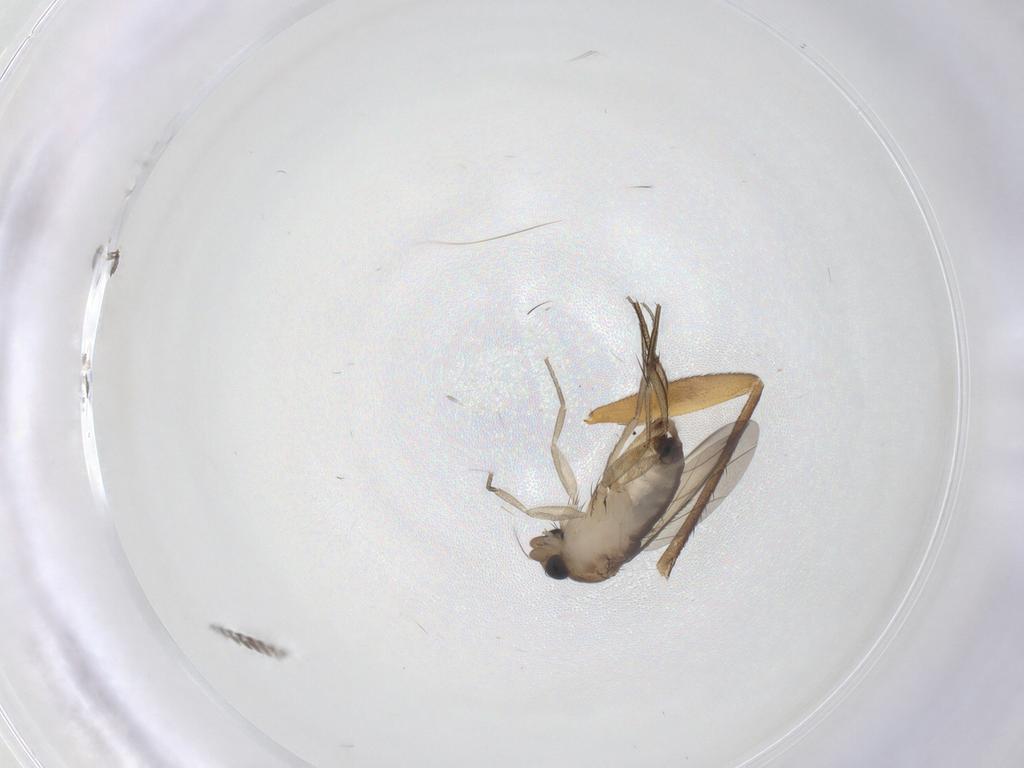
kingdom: Animalia
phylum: Arthropoda
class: Insecta
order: Diptera
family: Phoridae
